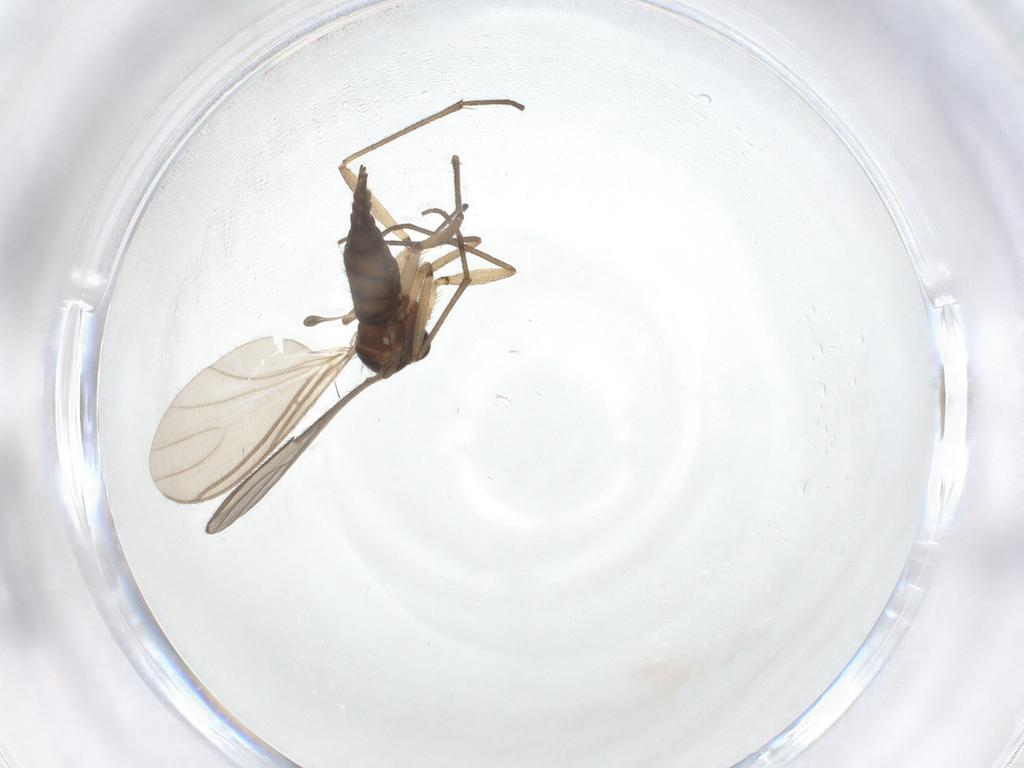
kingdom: Animalia
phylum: Arthropoda
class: Insecta
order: Diptera
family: Sciaridae
